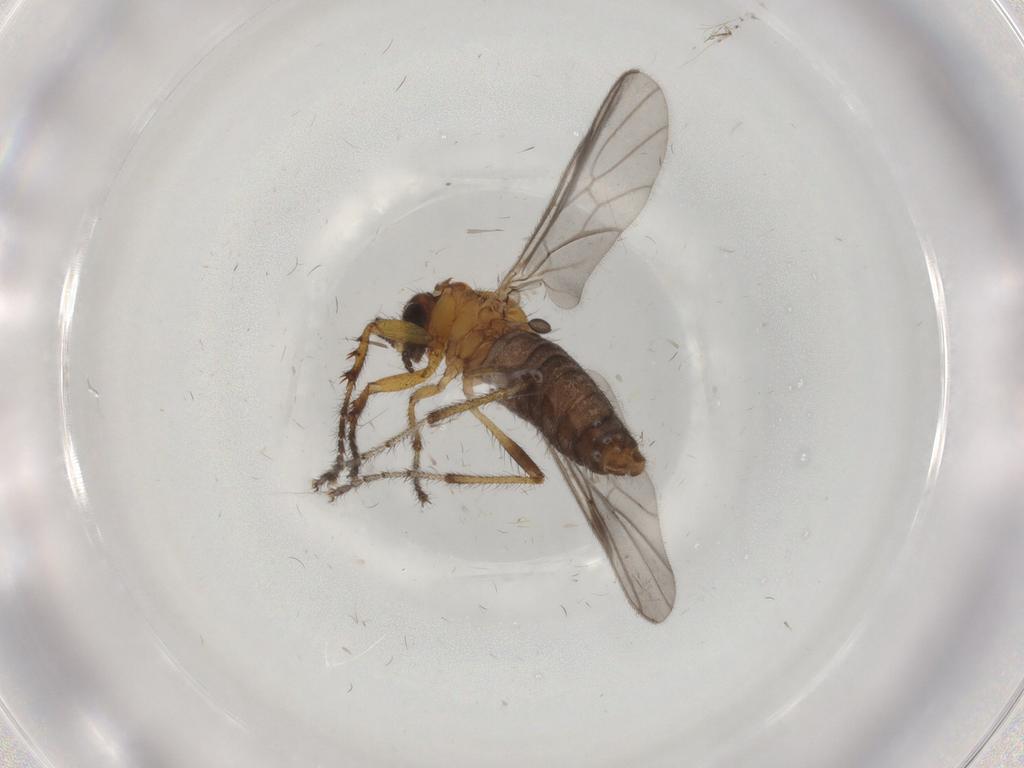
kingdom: Animalia
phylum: Arthropoda
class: Insecta
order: Diptera
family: Bibionidae
